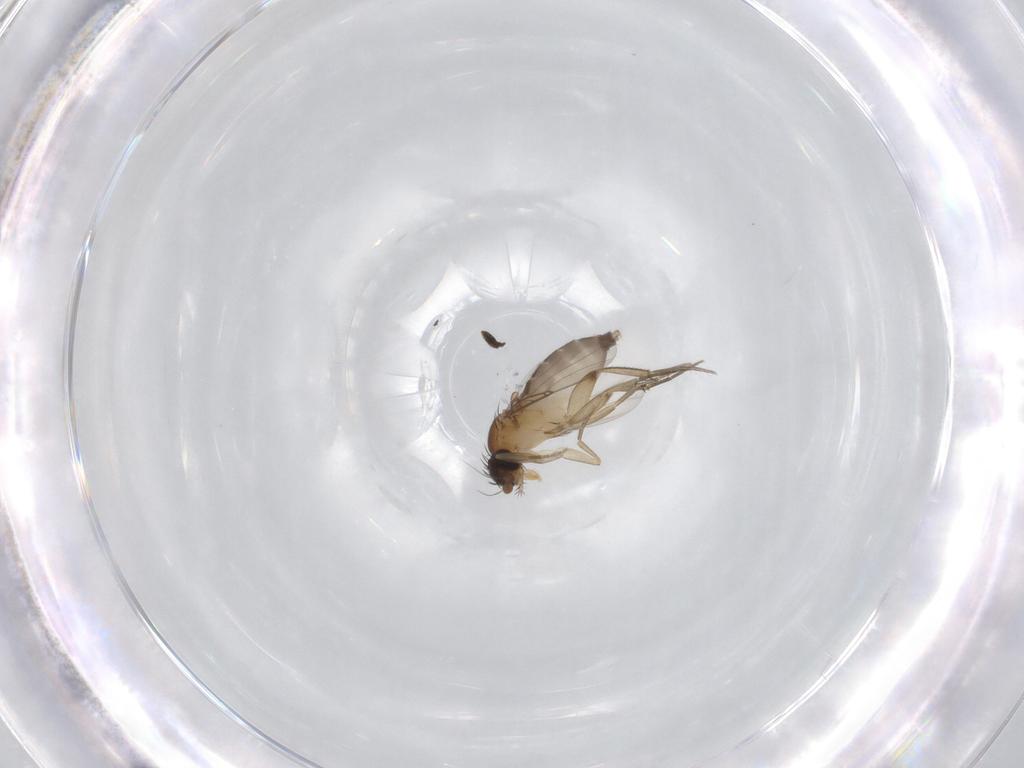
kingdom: Animalia
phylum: Arthropoda
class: Insecta
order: Diptera
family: Phoridae
